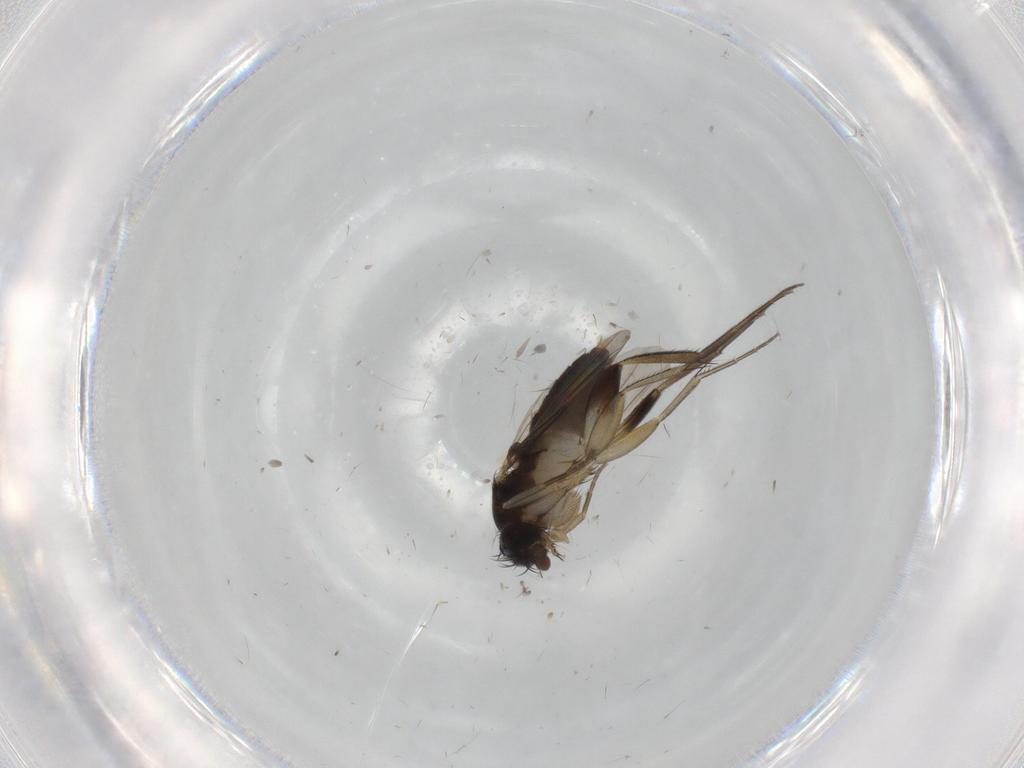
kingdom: Animalia
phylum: Arthropoda
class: Insecta
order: Diptera
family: Phoridae
